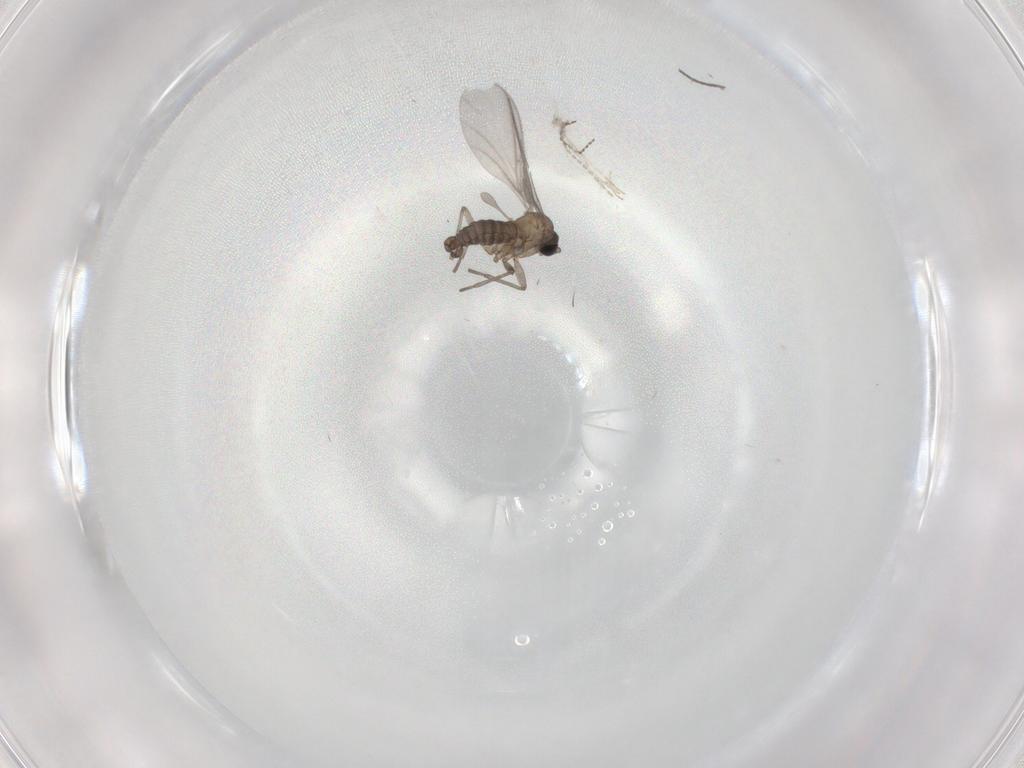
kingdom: Animalia
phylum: Arthropoda
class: Insecta
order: Diptera
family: Sciaridae
